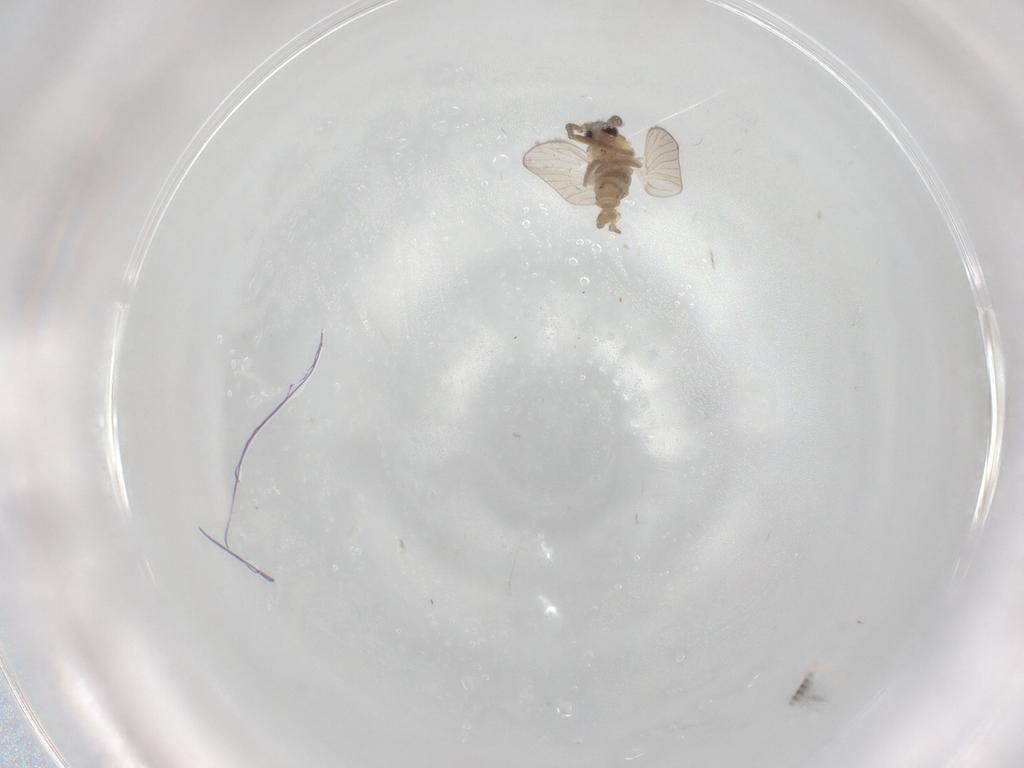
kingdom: Animalia
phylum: Arthropoda
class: Insecta
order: Diptera
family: Psychodidae
